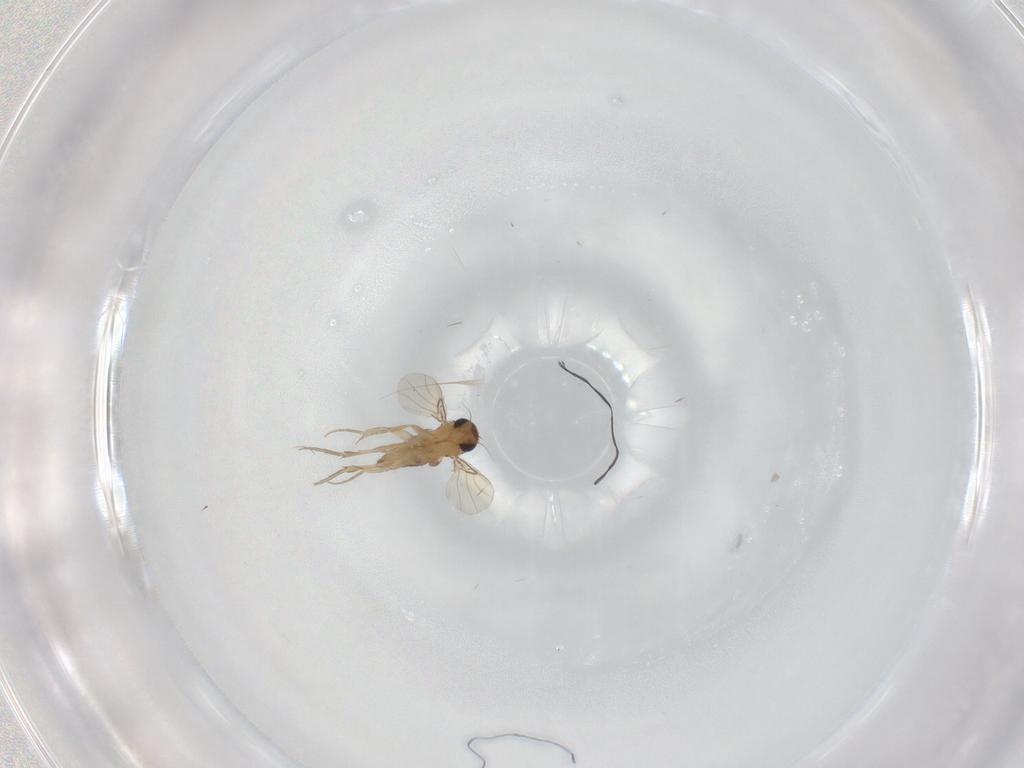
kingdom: Animalia
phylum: Arthropoda
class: Insecta
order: Diptera
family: Phoridae
